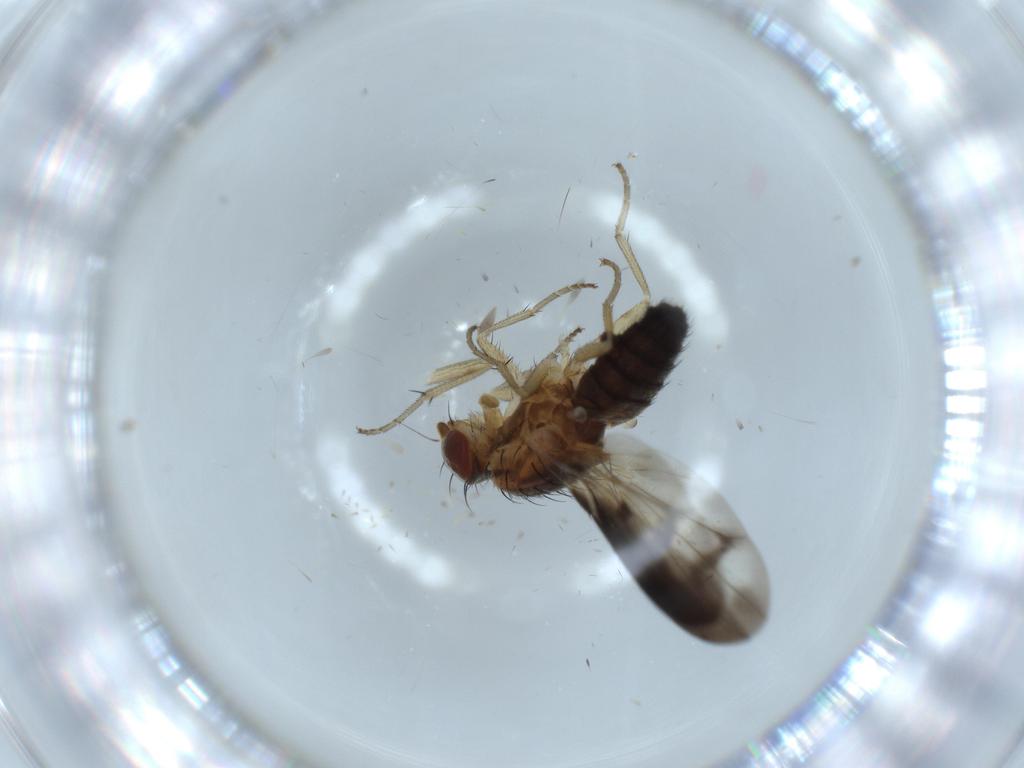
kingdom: Animalia
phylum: Arthropoda
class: Insecta
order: Diptera
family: Heleomyzidae
